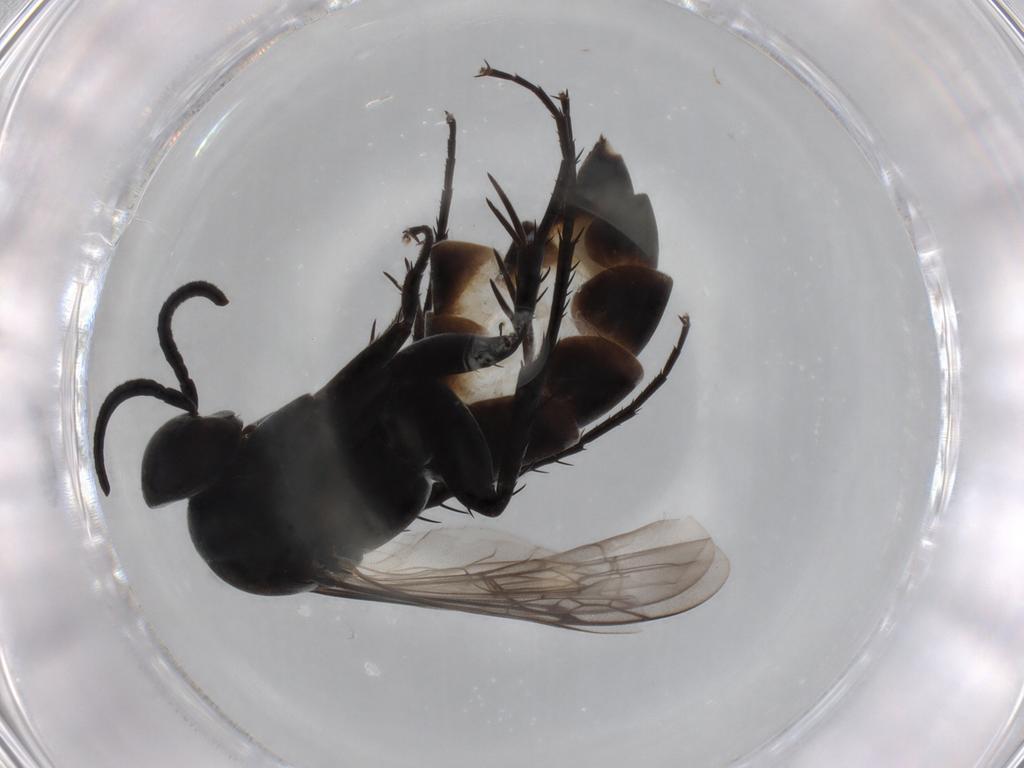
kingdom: Animalia
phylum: Arthropoda
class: Insecta
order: Hymenoptera
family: Pompilidae
